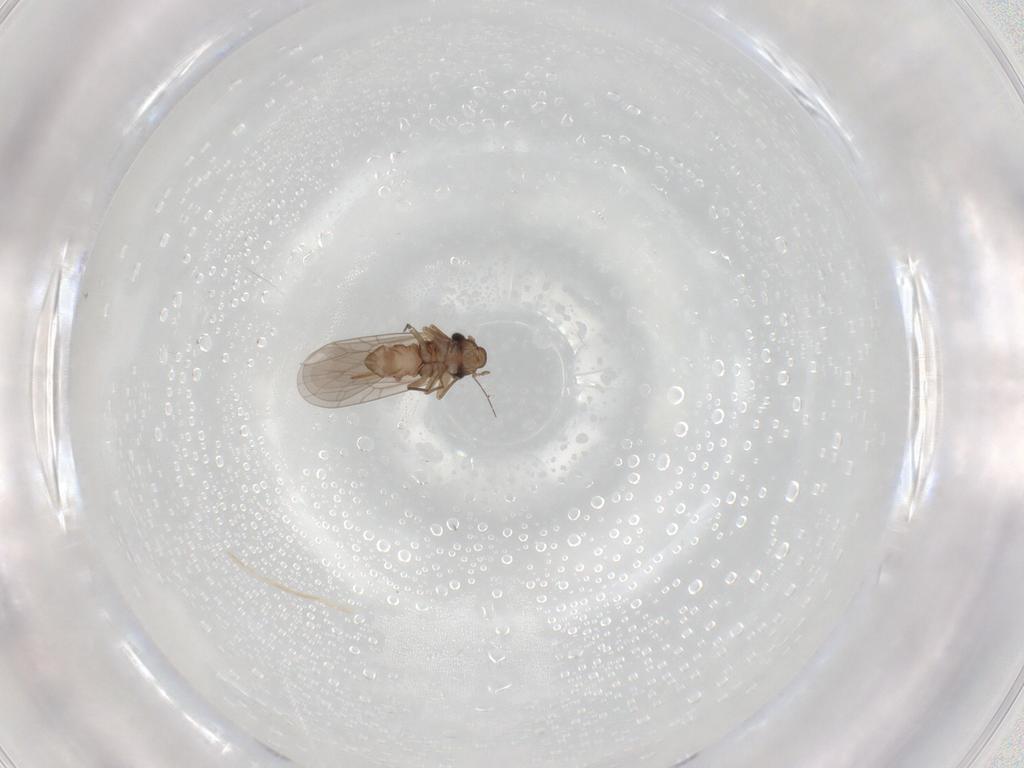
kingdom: Animalia
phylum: Arthropoda
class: Insecta
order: Psocodea
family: Lepidopsocidae
